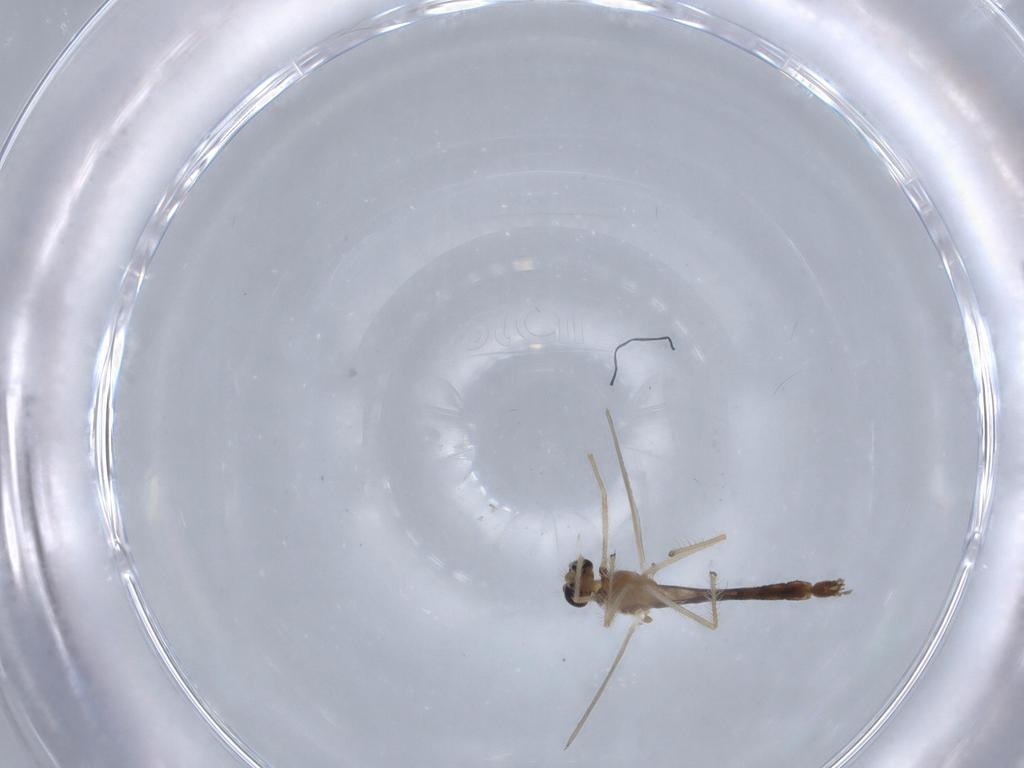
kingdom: Animalia
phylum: Arthropoda
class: Insecta
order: Diptera
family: Chironomidae
